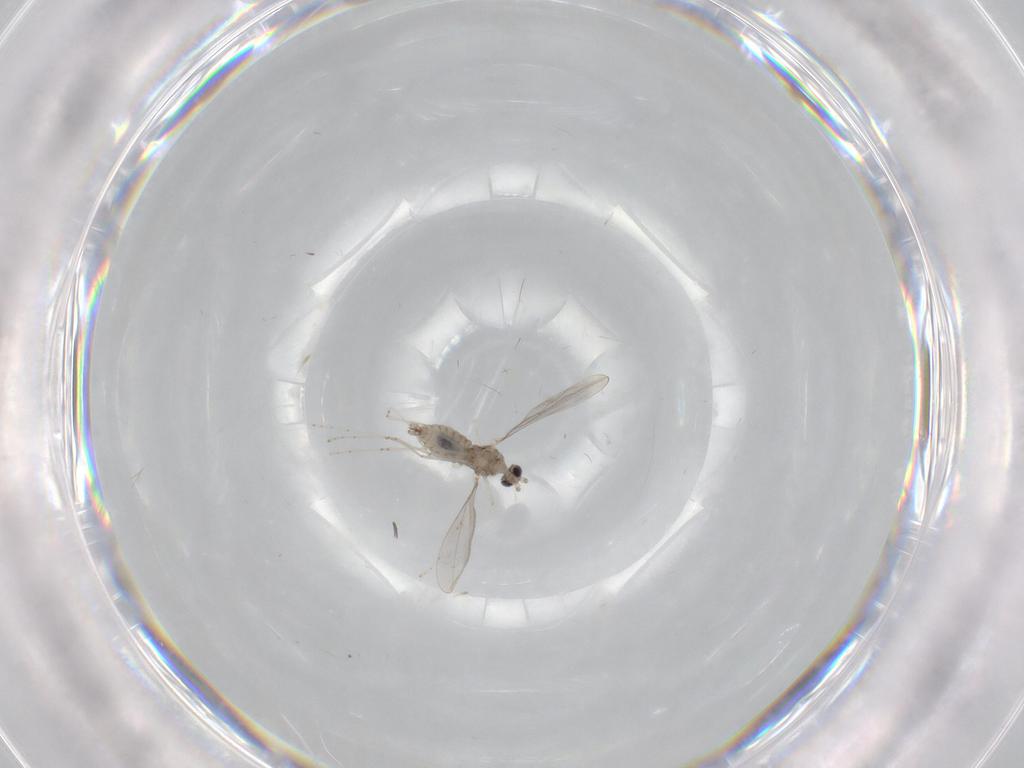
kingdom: Animalia
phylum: Arthropoda
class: Insecta
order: Diptera
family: Cecidomyiidae
